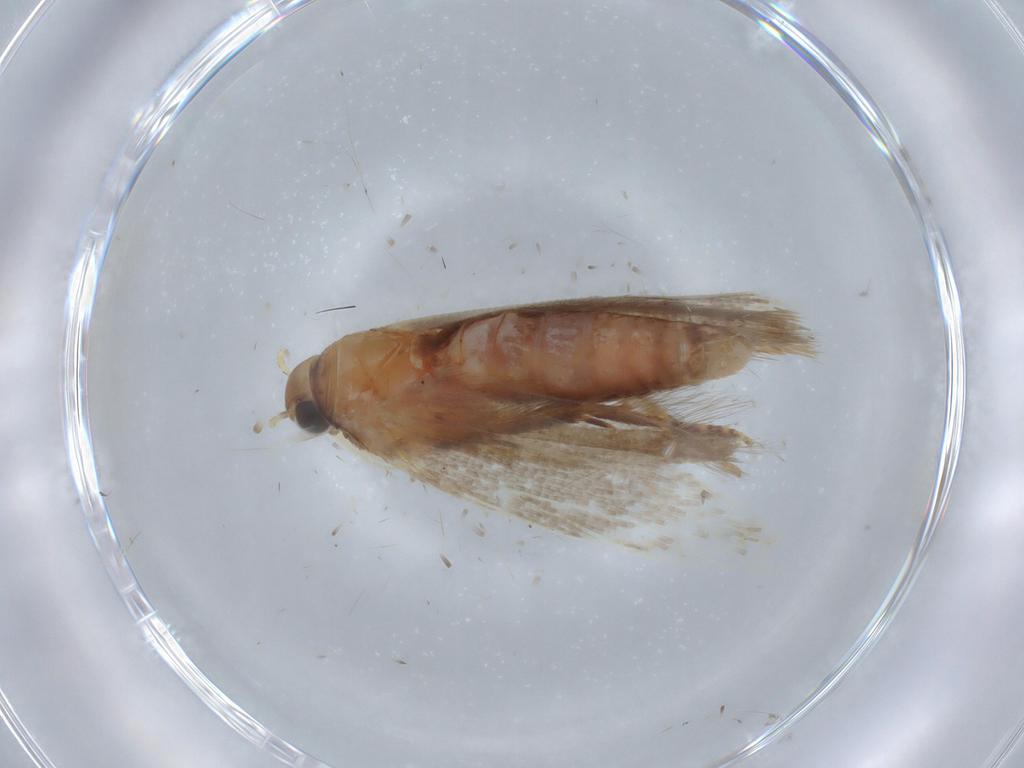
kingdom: Animalia
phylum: Arthropoda
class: Insecta
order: Lepidoptera
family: Gelechiidae
